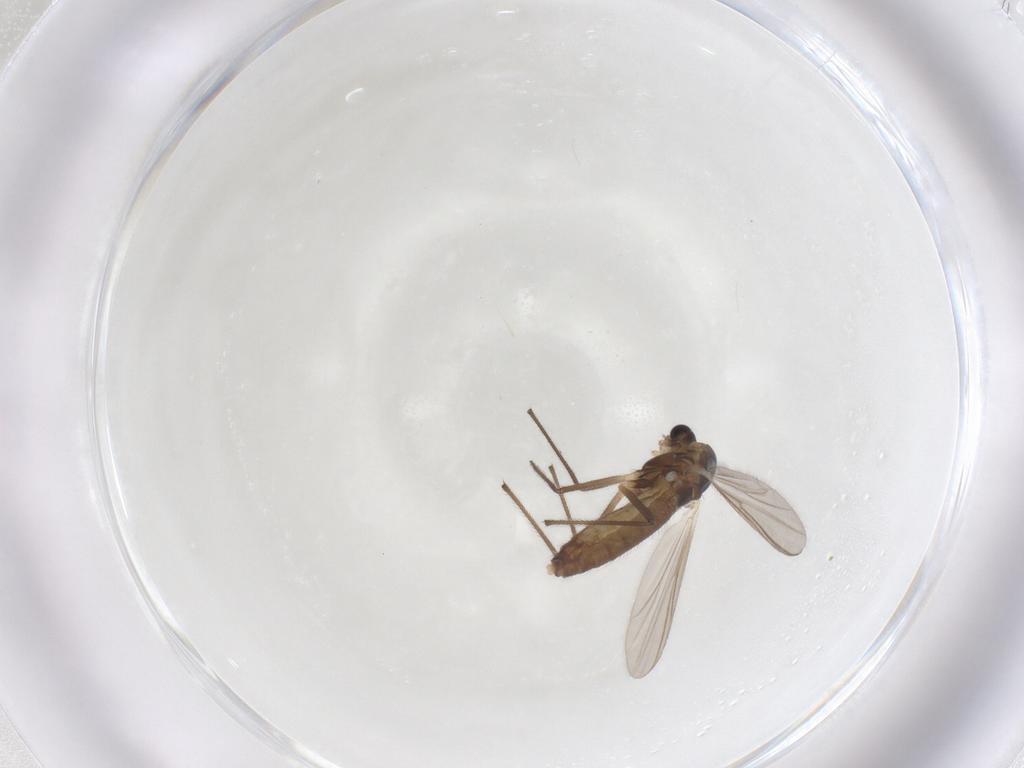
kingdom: Animalia
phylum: Arthropoda
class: Insecta
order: Diptera
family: Chironomidae
